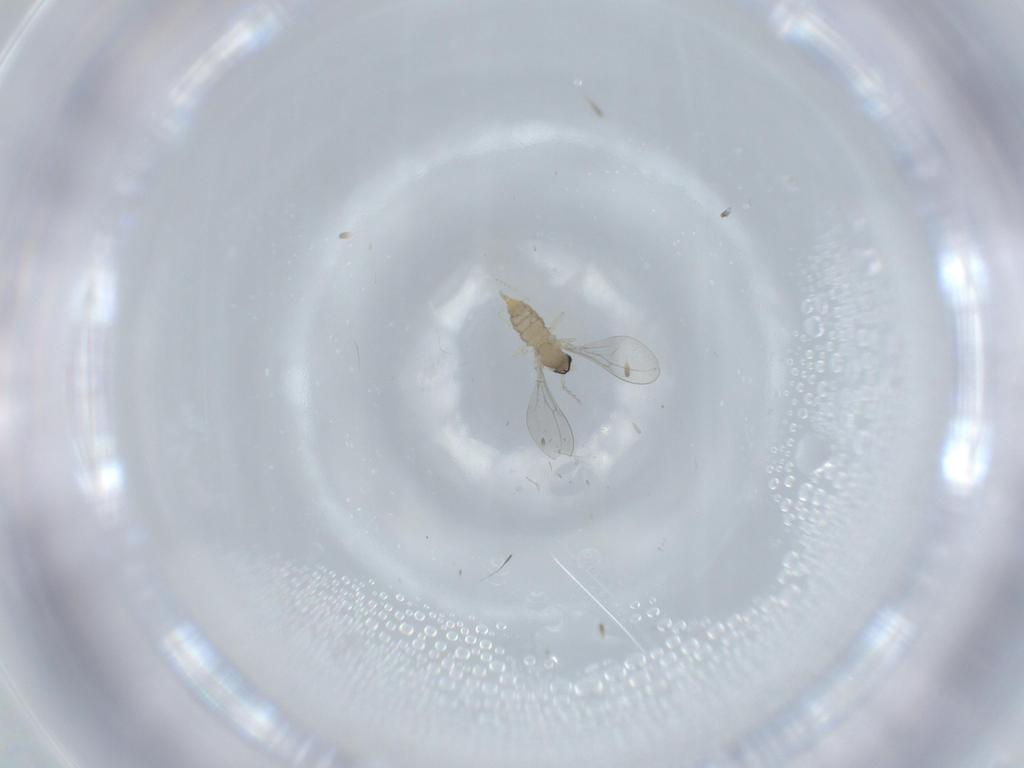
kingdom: Animalia
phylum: Arthropoda
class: Insecta
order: Diptera
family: Cecidomyiidae
